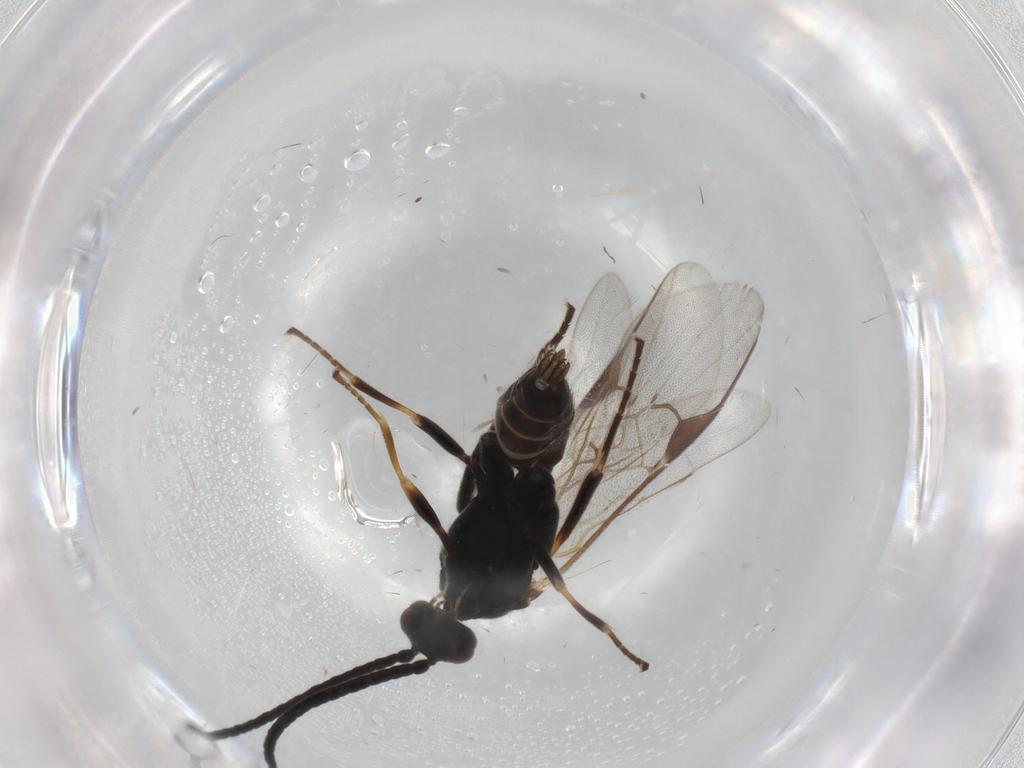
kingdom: Animalia
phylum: Arthropoda
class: Insecta
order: Hymenoptera
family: Braconidae
